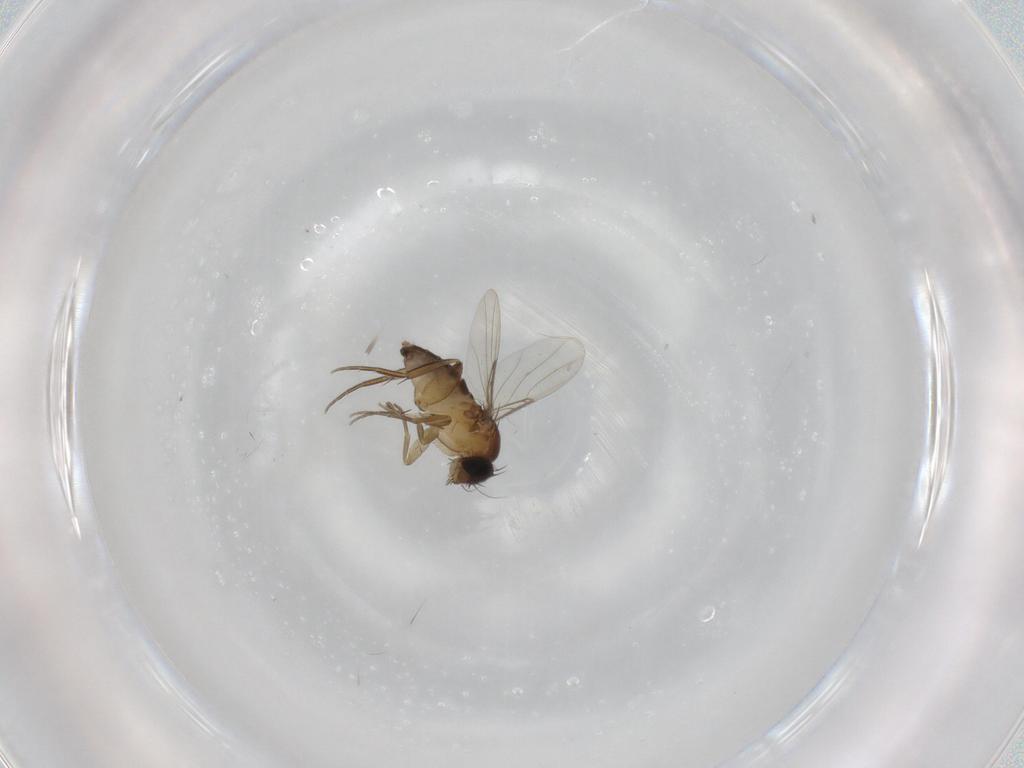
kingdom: Animalia
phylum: Arthropoda
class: Insecta
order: Diptera
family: Phoridae
